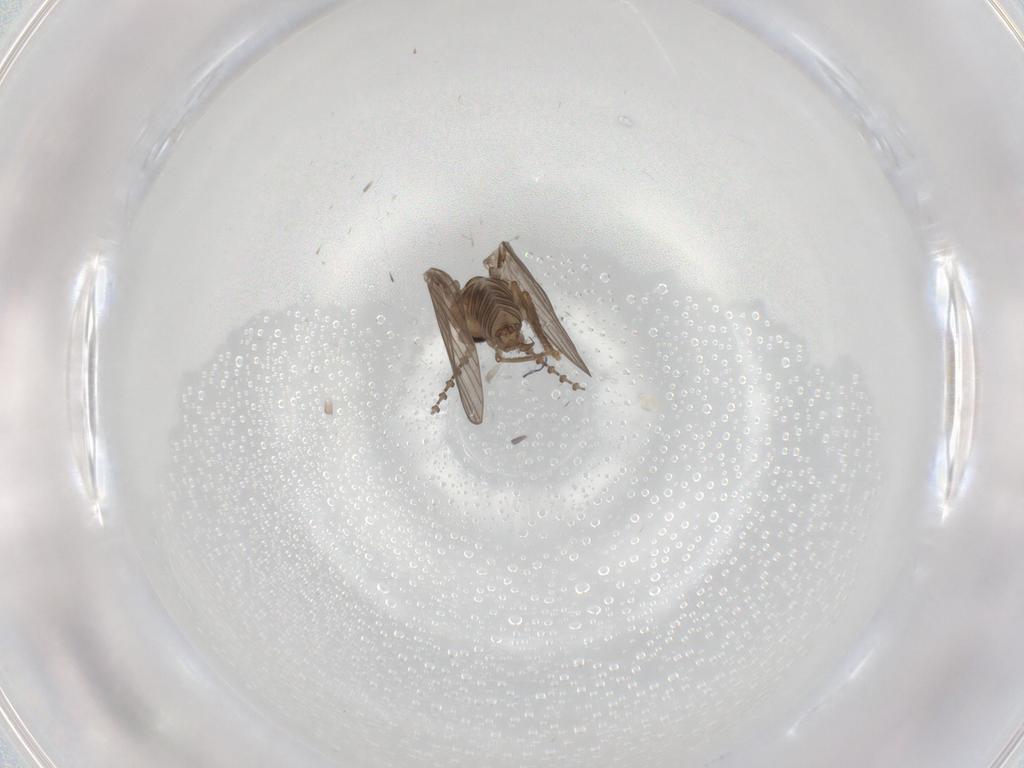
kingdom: Animalia
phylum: Arthropoda
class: Insecta
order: Diptera
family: Psychodidae
